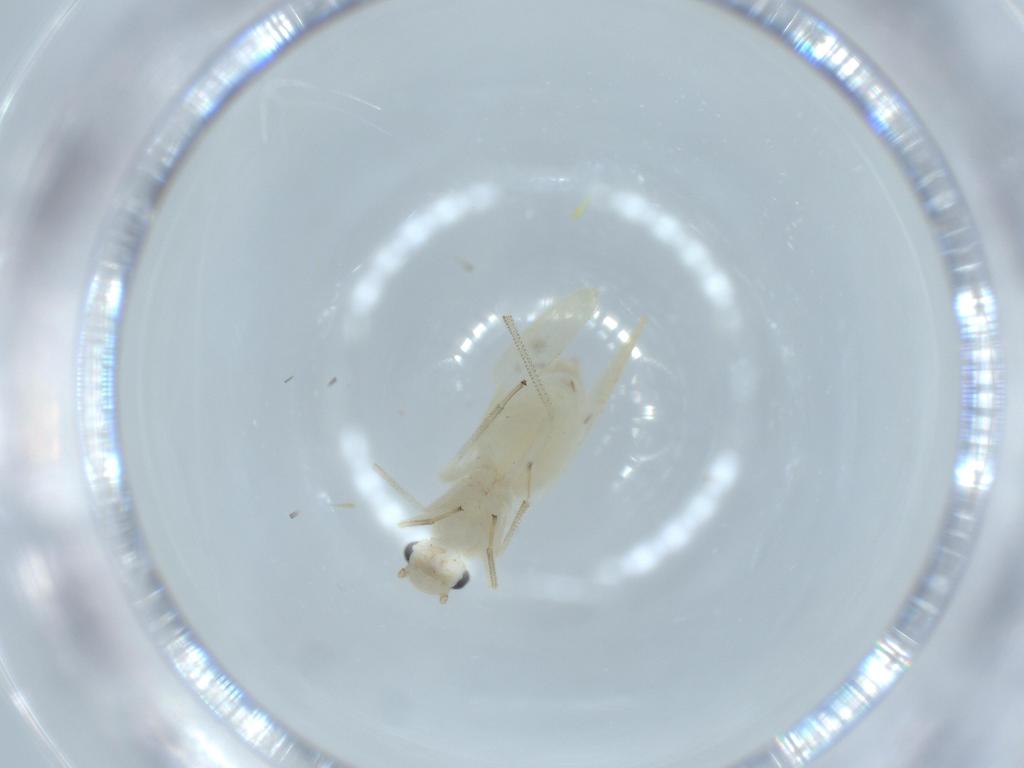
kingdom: Animalia
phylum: Arthropoda
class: Insecta
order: Psocodea
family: Caeciliusidae
